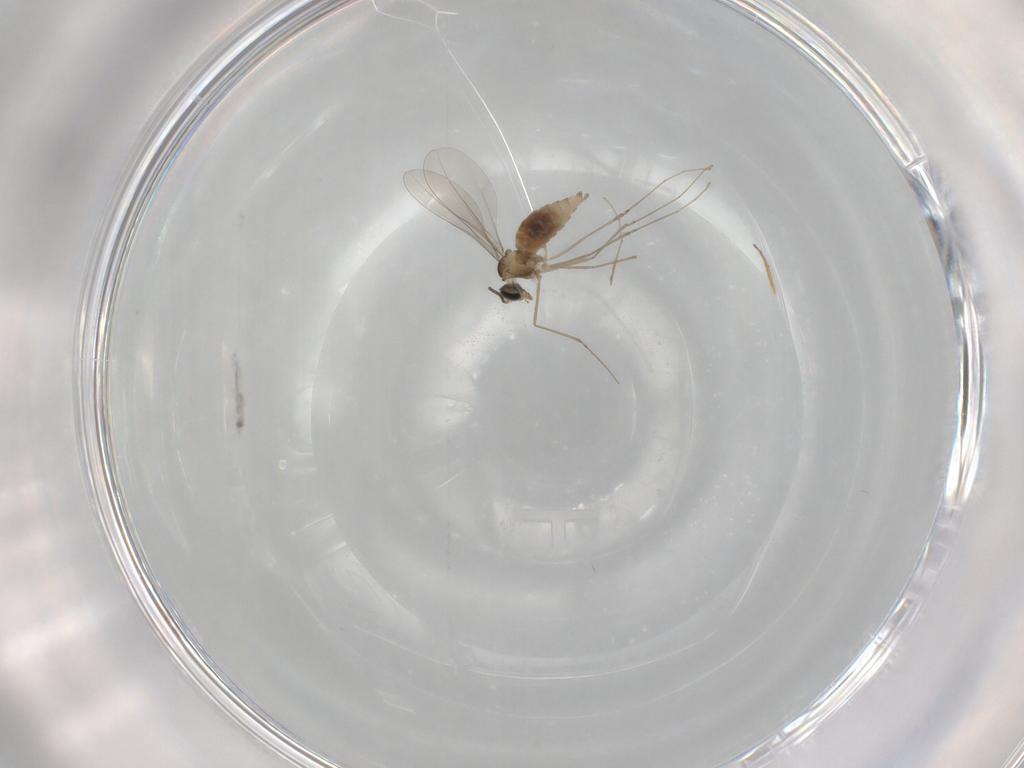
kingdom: Animalia
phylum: Arthropoda
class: Insecta
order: Diptera
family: Cecidomyiidae
